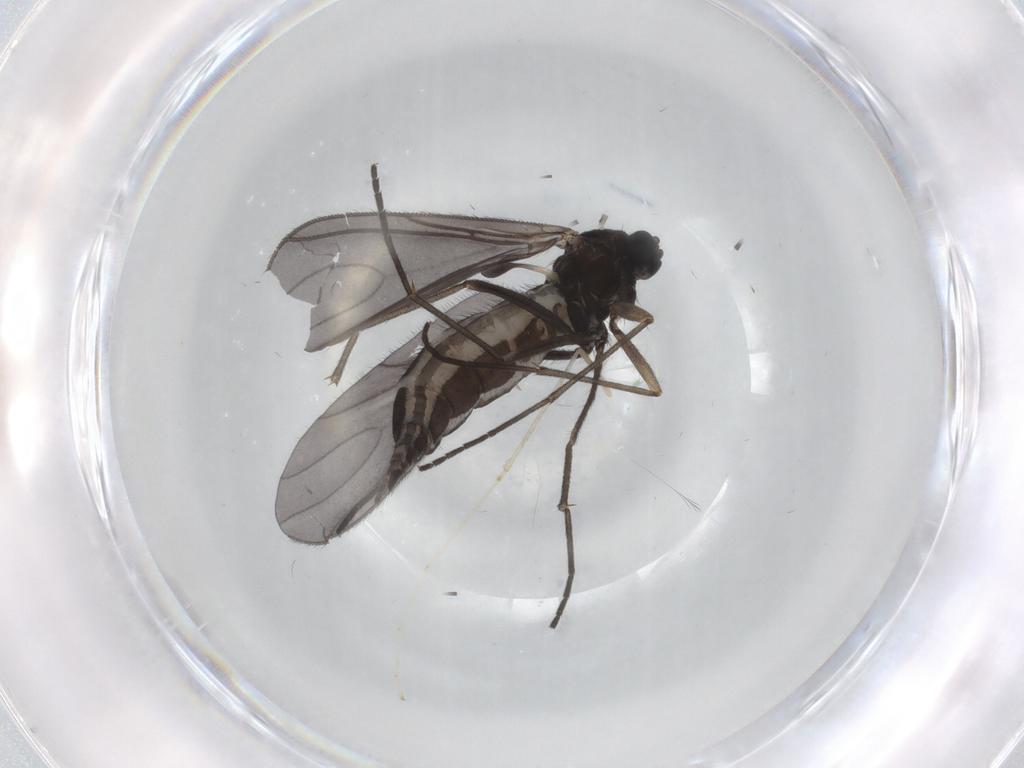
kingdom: Animalia
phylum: Arthropoda
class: Insecta
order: Diptera
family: Sciaridae
